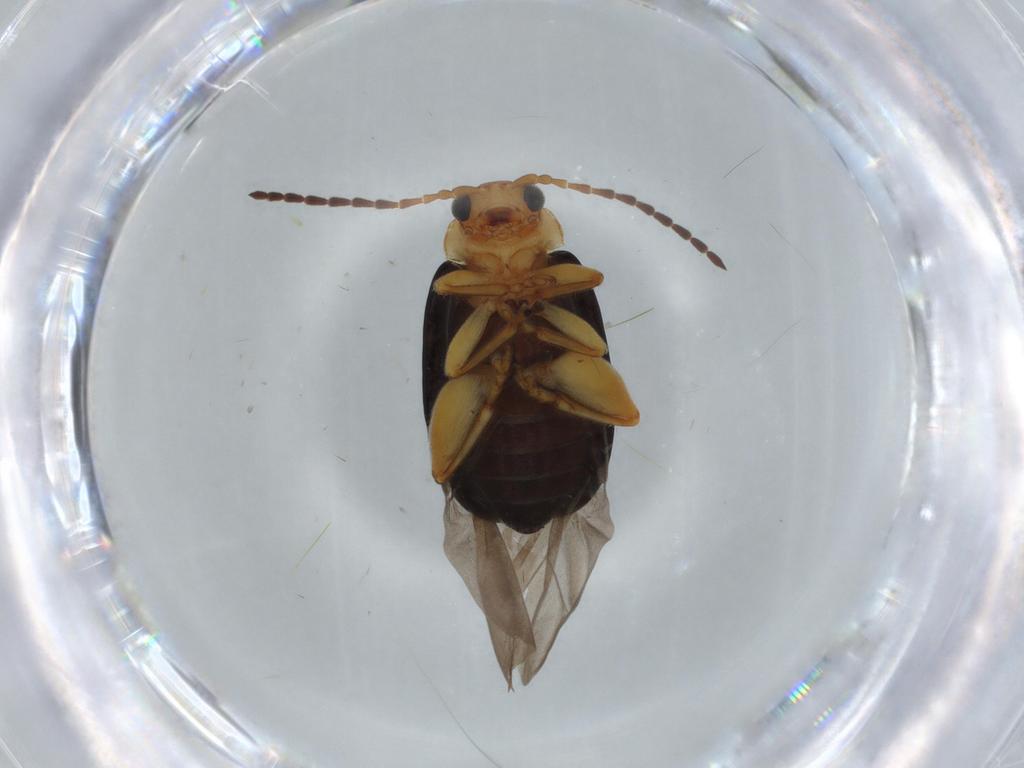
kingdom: Animalia
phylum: Arthropoda
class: Insecta
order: Coleoptera
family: Chrysomelidae
